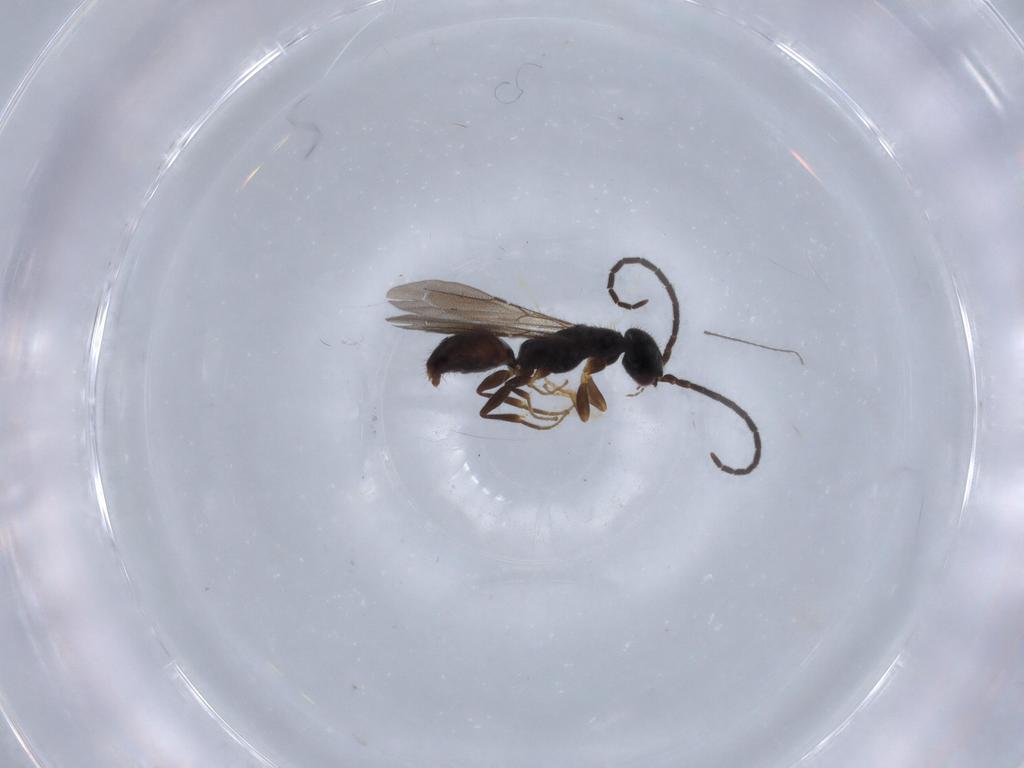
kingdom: Animalia
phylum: Arthropoda
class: Insecta
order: Hymenoptera
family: Bethylidae
